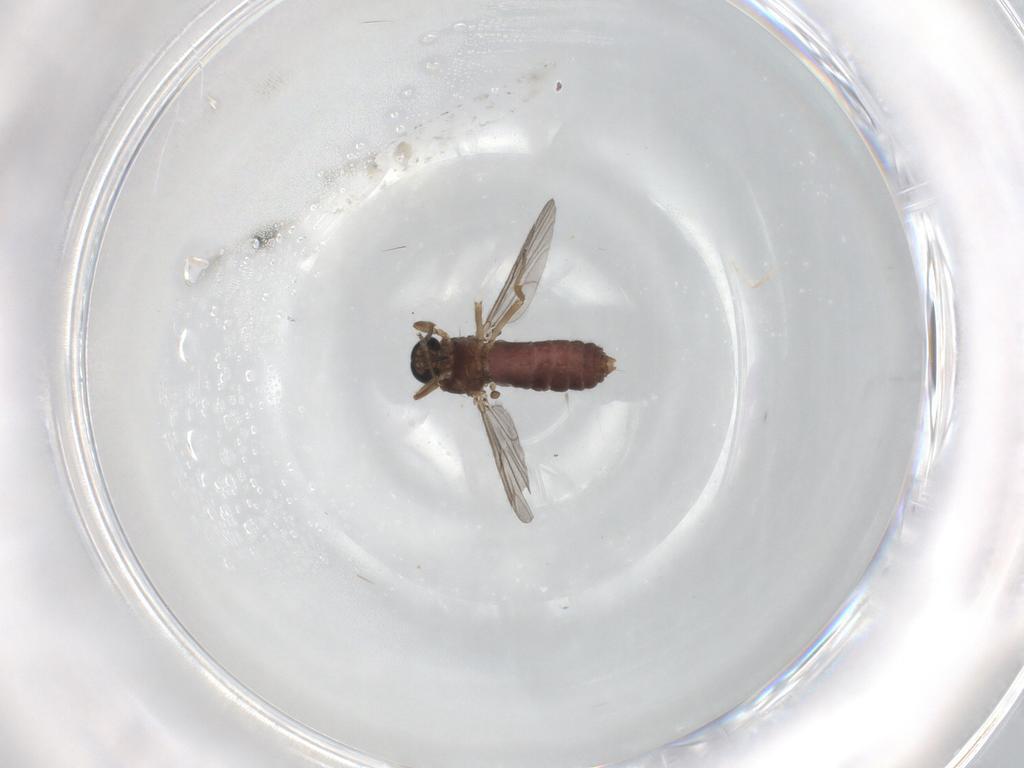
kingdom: Animalia
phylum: Arthropoda
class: Insecta
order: Diptera
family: Ceratopogonidae
